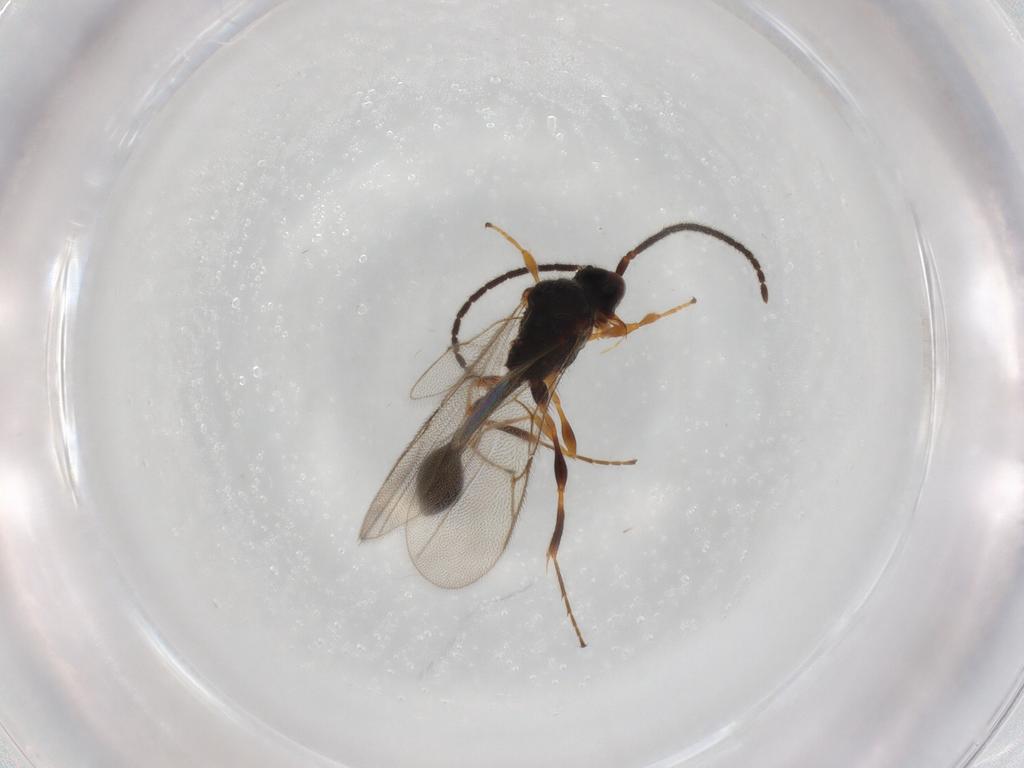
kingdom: Animalia
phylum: Arthropoda
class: Insecta
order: Hymenoptera
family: Diapriidae
